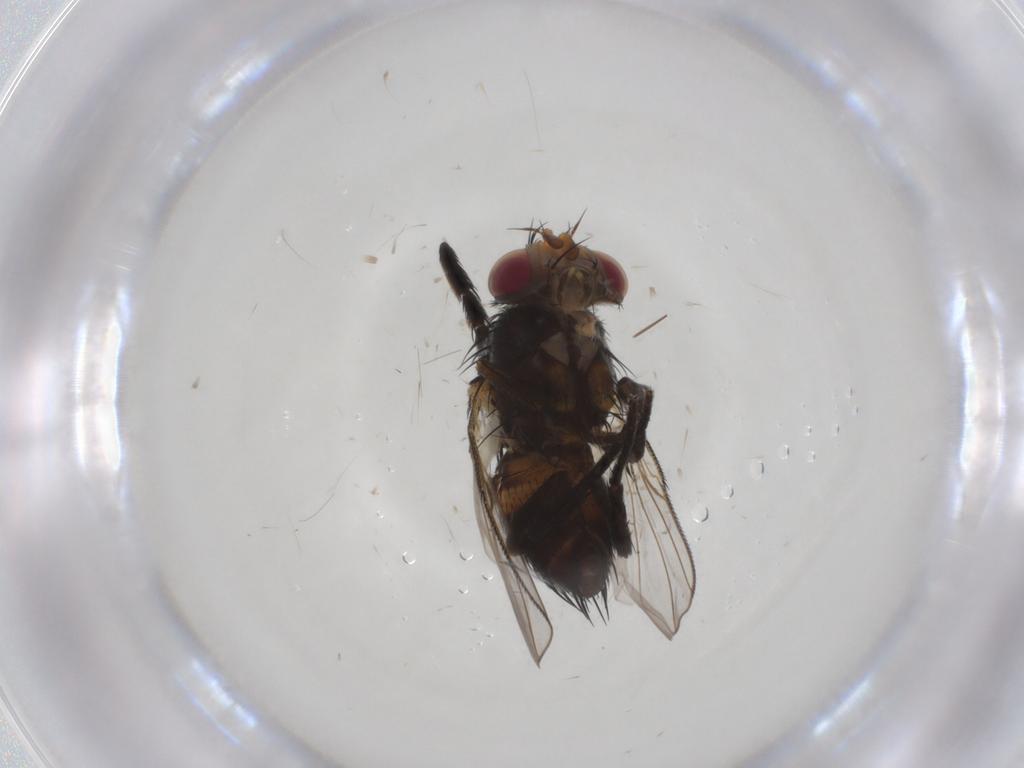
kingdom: Animalia
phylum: Arthropoda
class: Insecta
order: Diptera
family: Tachinidae
